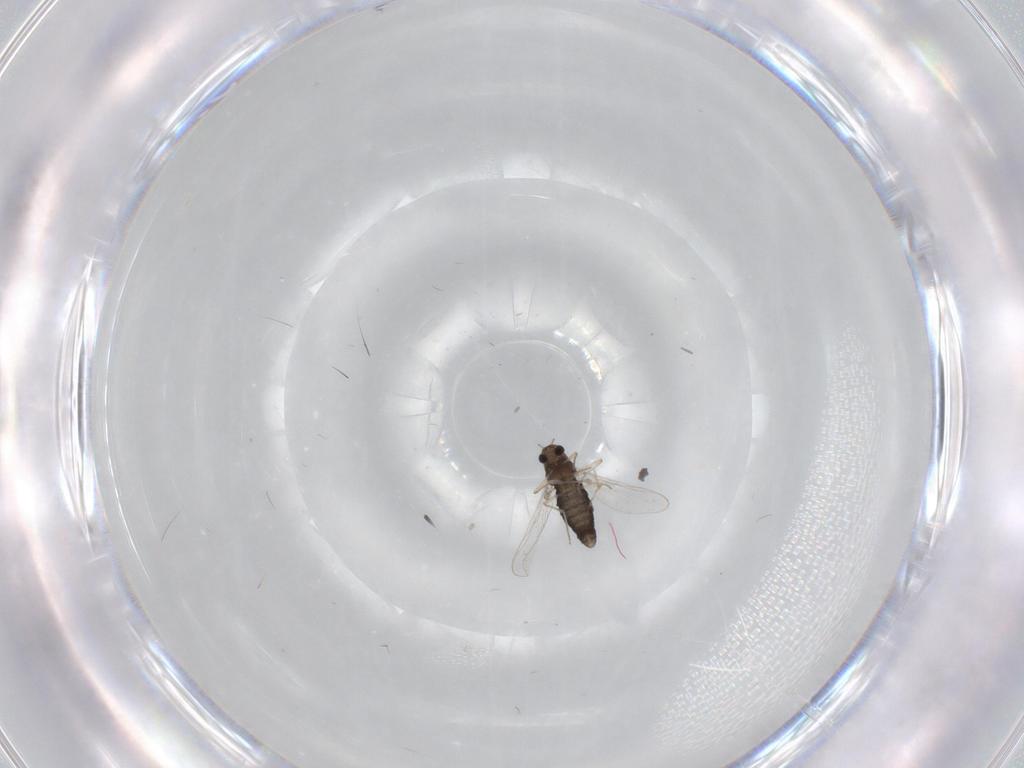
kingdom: Animalia
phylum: Arthropoda
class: Insecta
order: Diptera
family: Chironomidae
